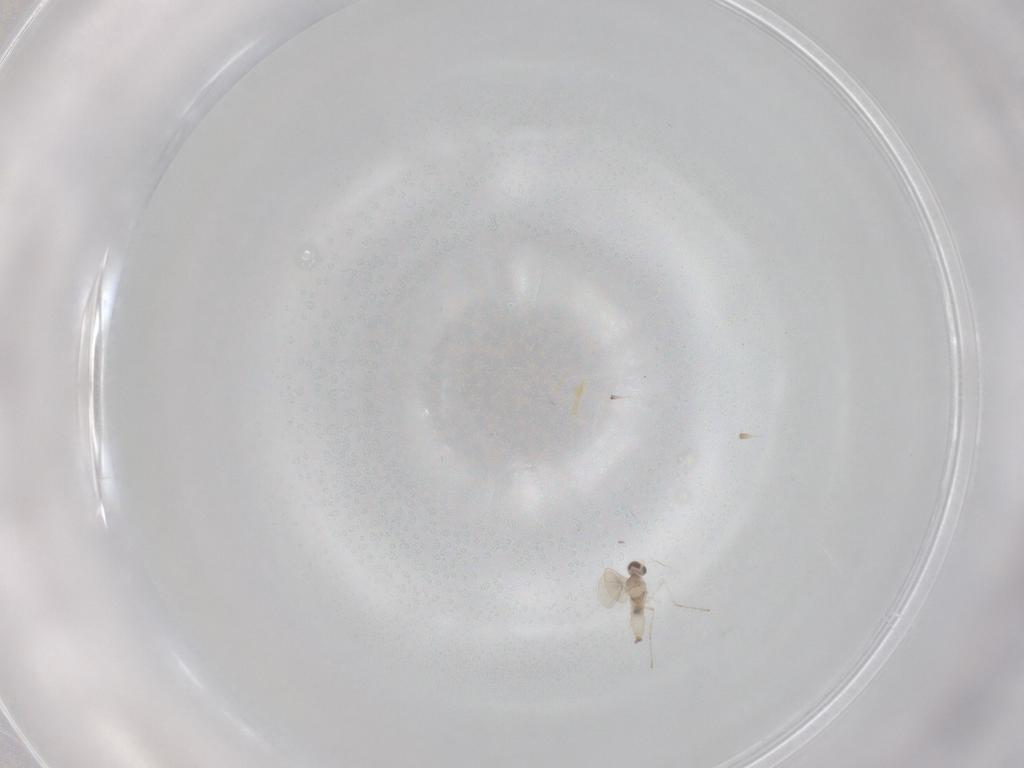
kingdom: Animalia
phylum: Arthropoda
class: Insecta
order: Diptera
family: Cecidomyiidae
